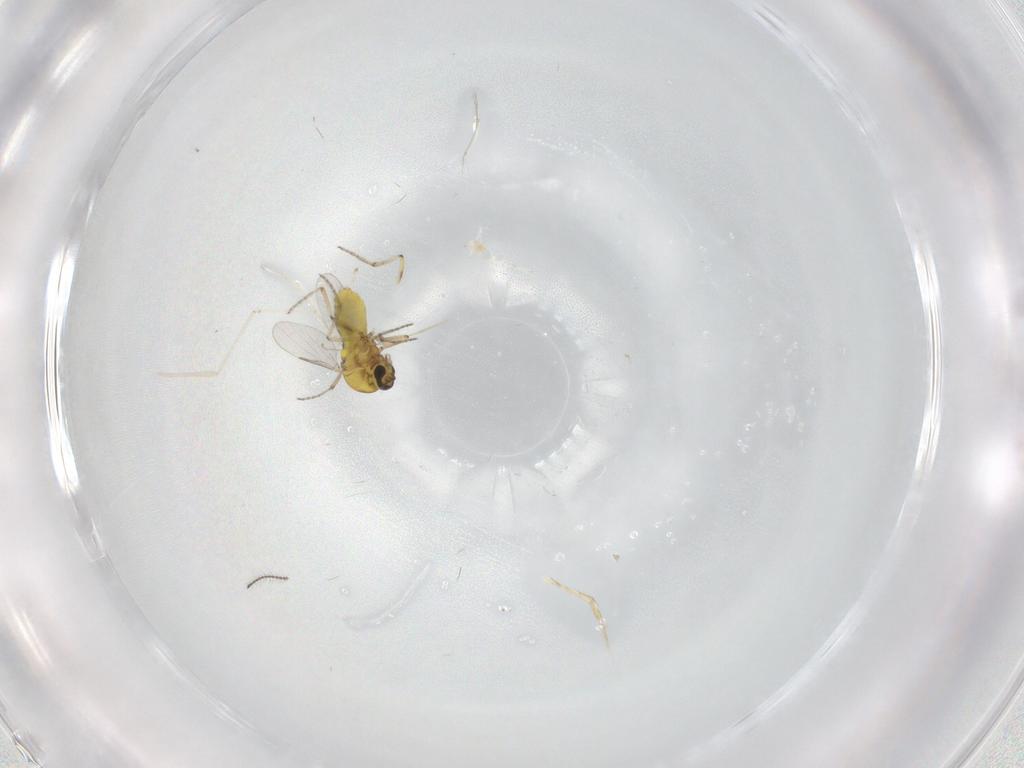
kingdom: Animalia
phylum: Arthropoda
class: Insecta
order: Diptera
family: Cecidomyiidae
